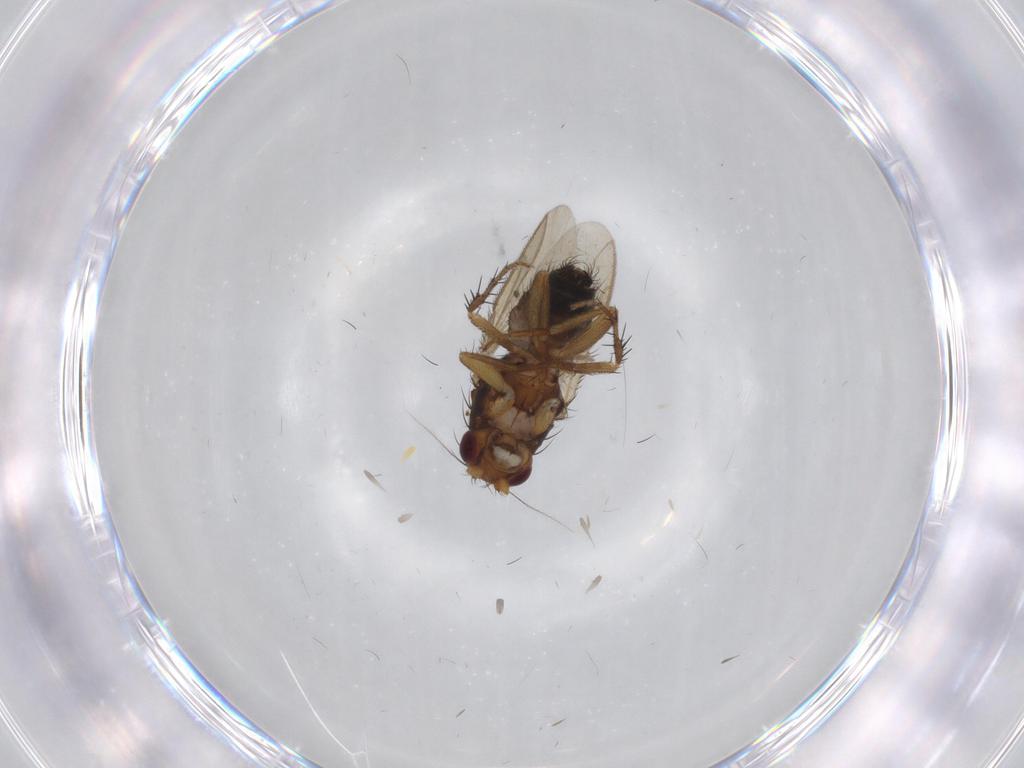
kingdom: Animalia
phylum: Arthropoda
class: Insecta
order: Diptera
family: Sphaeroceridae
